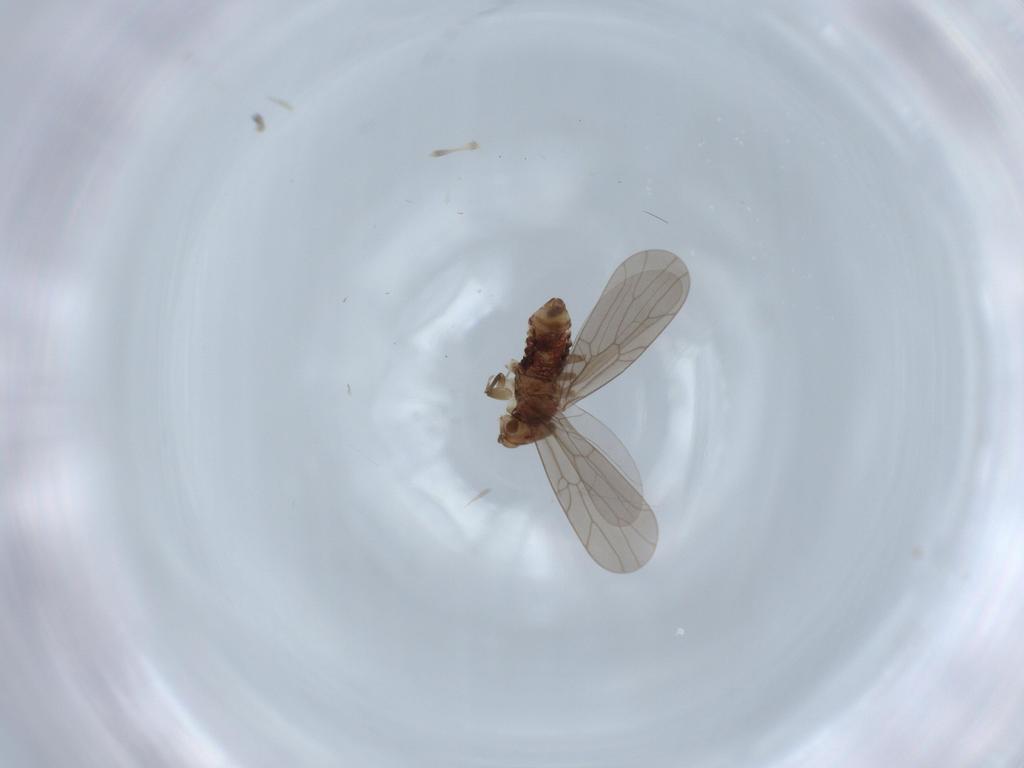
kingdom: Animalia
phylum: Arthropoda
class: Insecta
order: Psocodea
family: Lepidopsocidae
